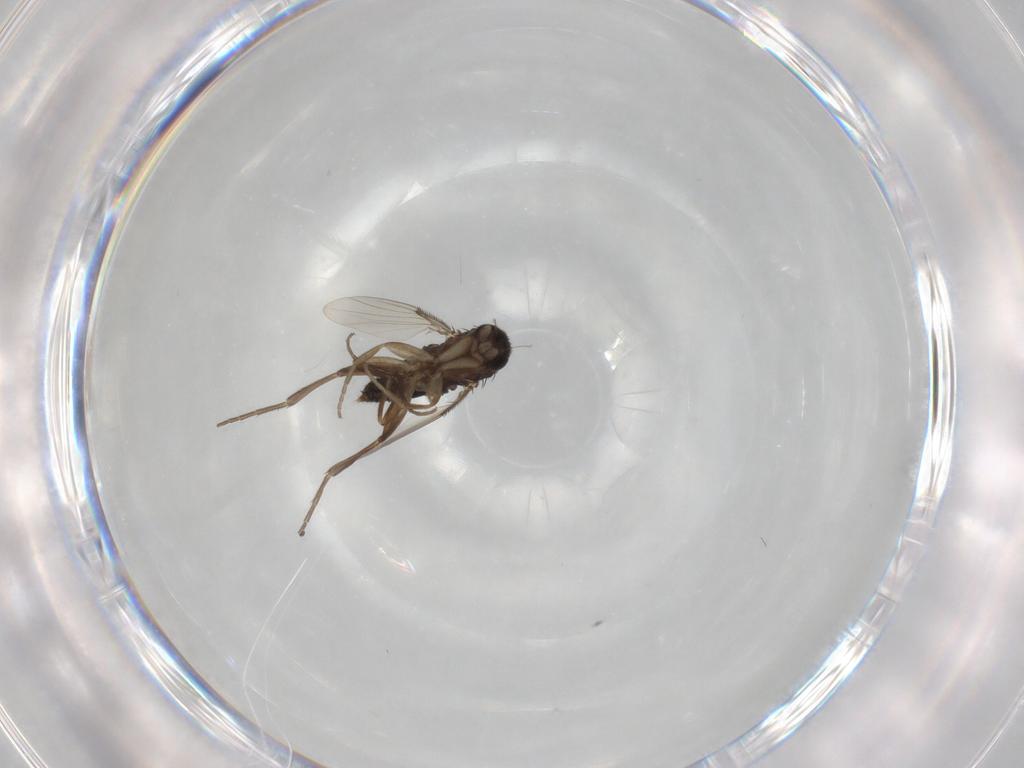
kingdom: Animalia
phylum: Arthropoda
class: Insecta
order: Diptera
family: Phoridae
